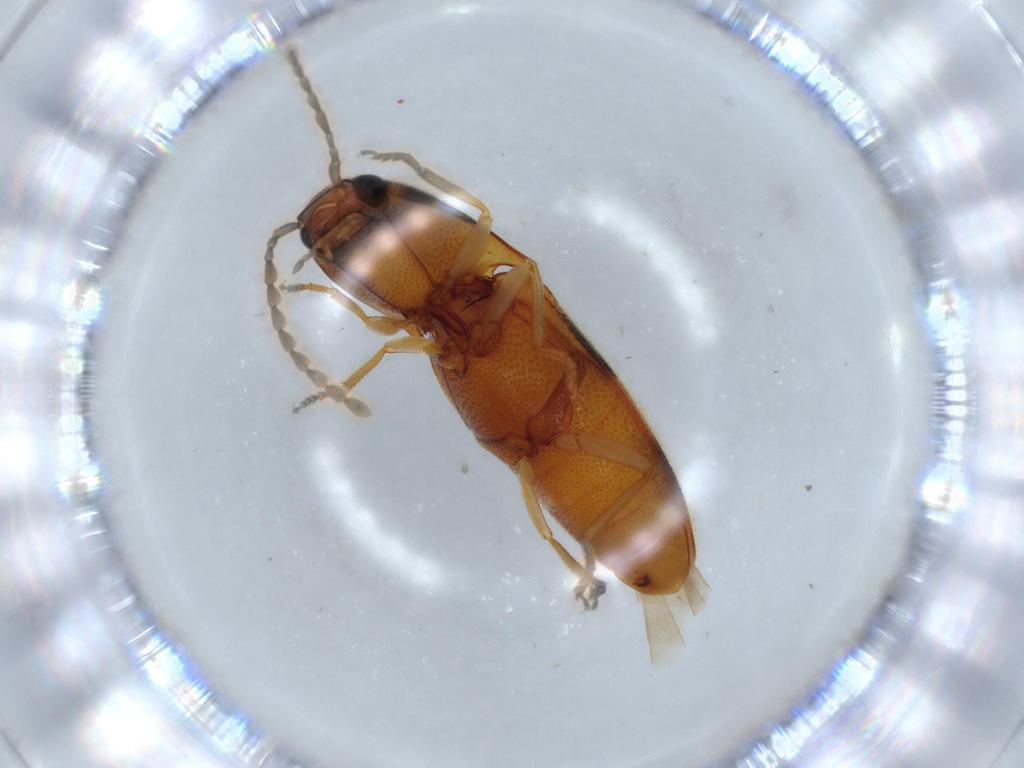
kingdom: Animalia
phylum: Arthropoda
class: Insecta
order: Coleoptera
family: Elateridae
